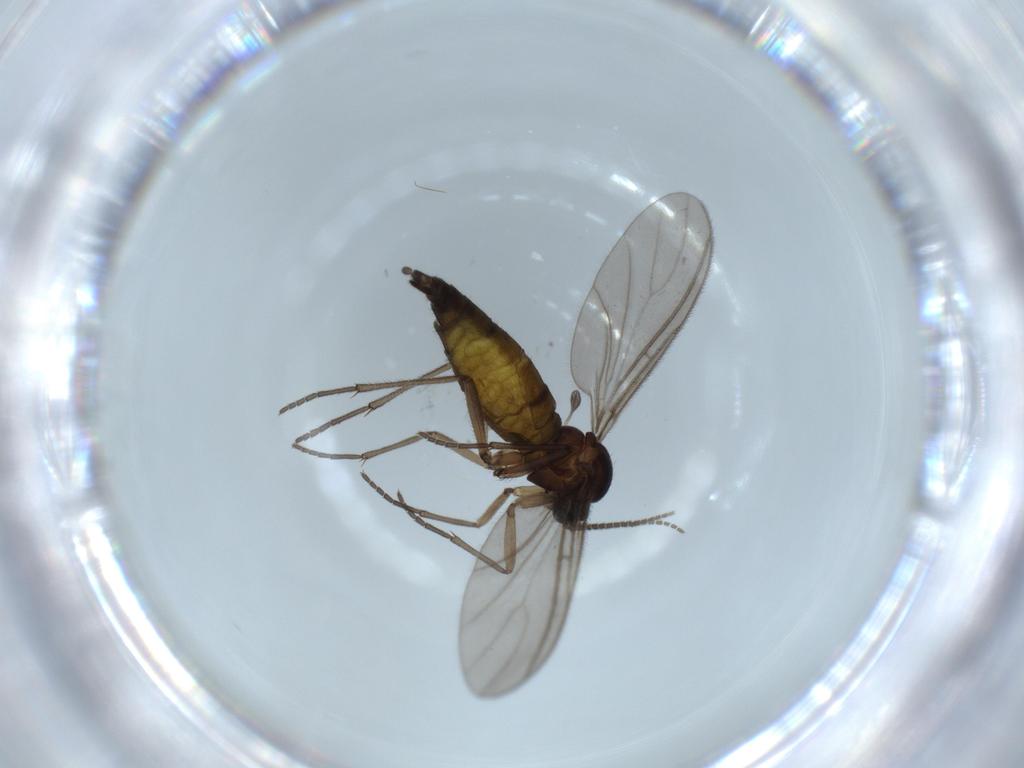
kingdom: Animalia
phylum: Arthropoda
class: Insecta
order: Diptera
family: Sciaridae
